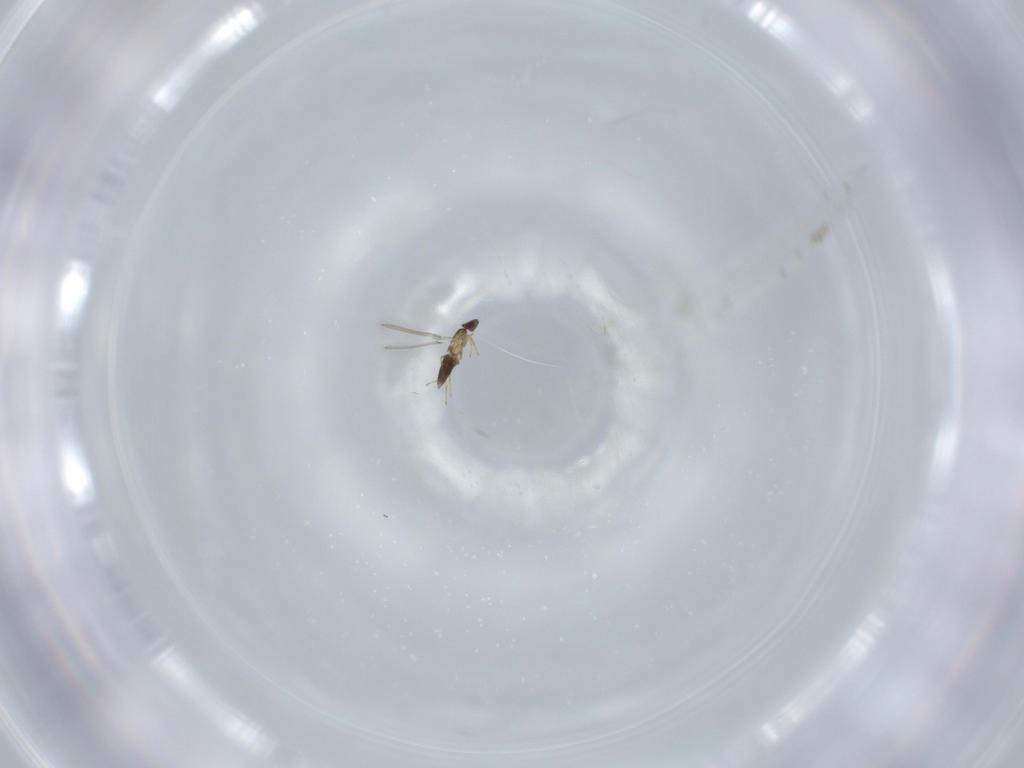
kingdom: Animalia
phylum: Arthropoda
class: Insecta
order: Hymenoptera
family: Mymaridae
